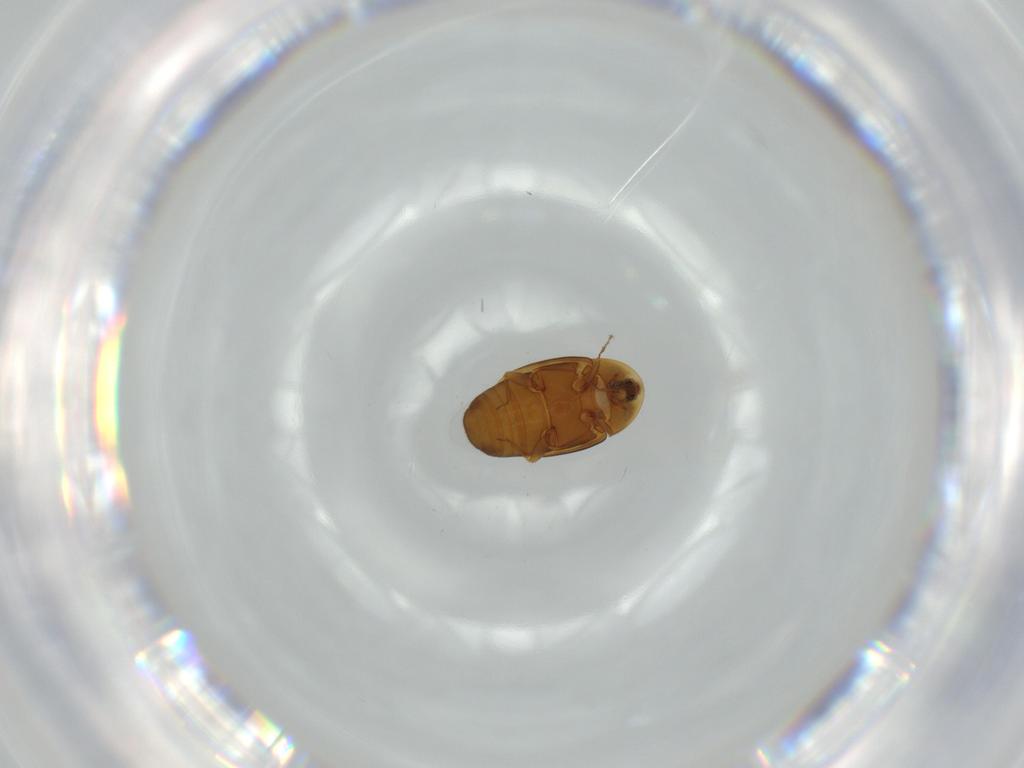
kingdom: Animalia
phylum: Arthropoda
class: Insecta
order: Coleoptera
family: Corylophidae
